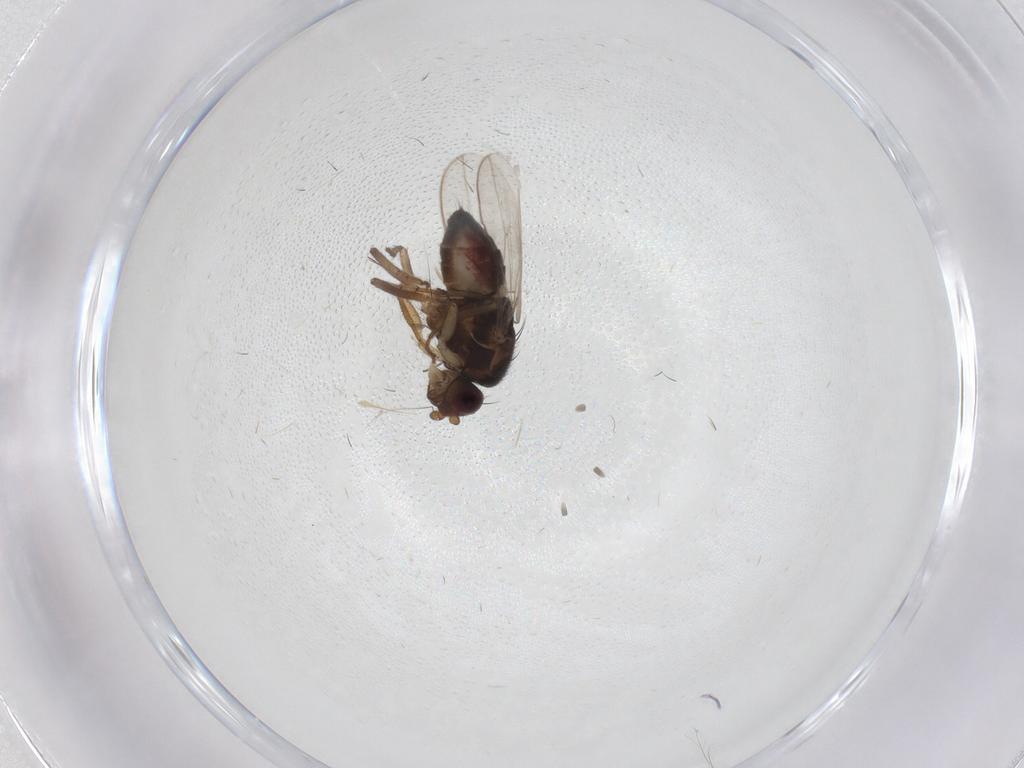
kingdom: Animalia
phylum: Arthropoda
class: Insecta
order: Diptera
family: Sphaeroceridae
